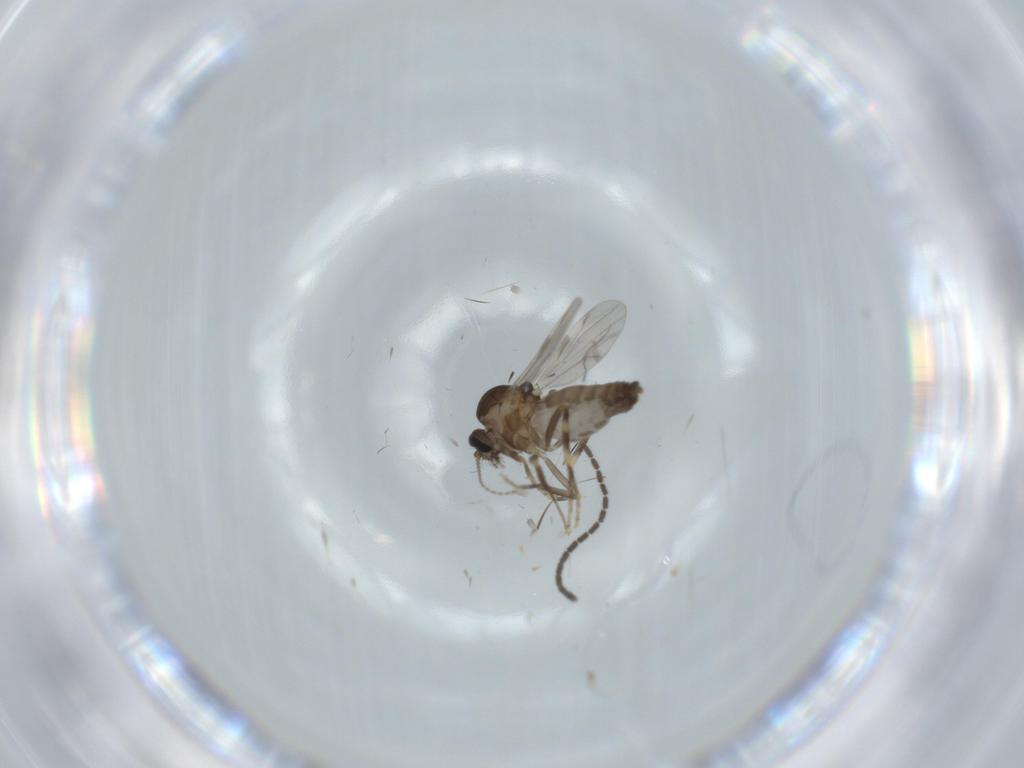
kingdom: Animalia
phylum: Arthropoda
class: Insecta
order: Diptera
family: Ceratopogonidae
